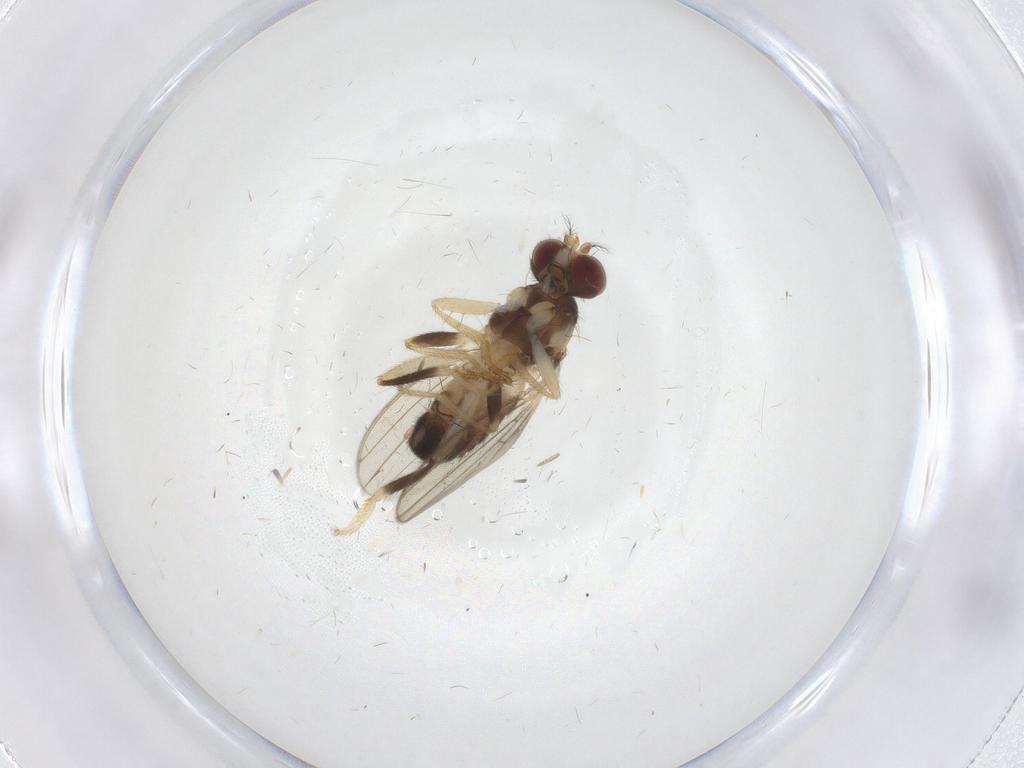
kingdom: Animalia
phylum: Arthropoda
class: Insecta
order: Diptera
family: Periscelididae
